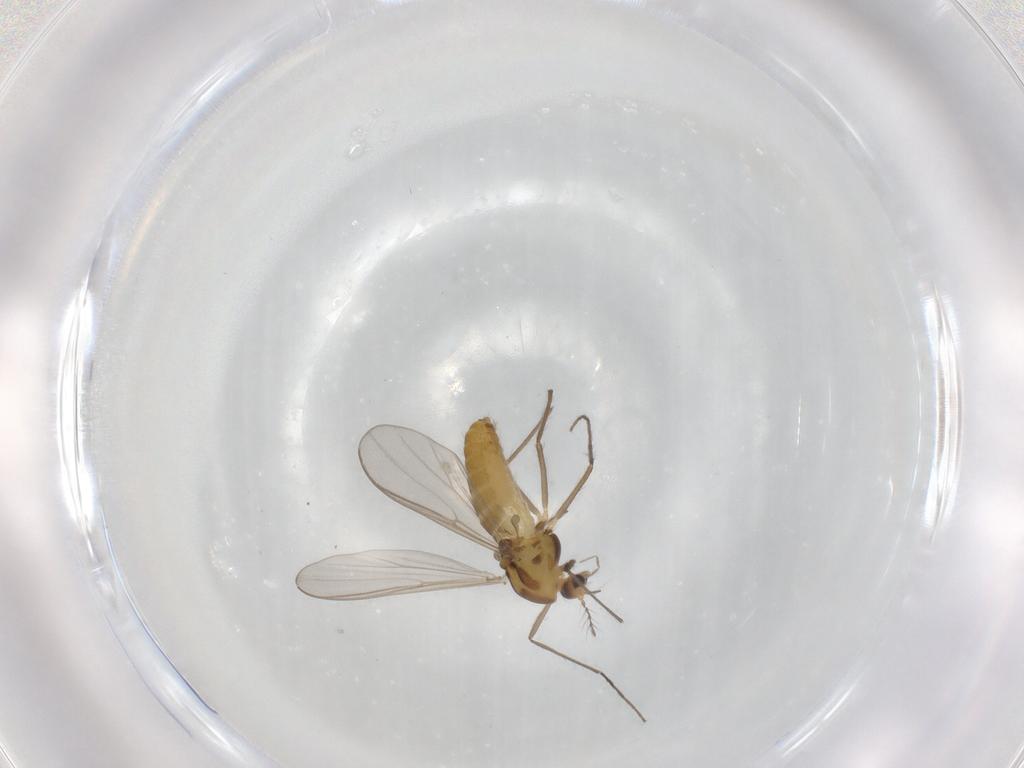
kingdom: Animalia
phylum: Arthropoda
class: Insecta
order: Diptera
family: Chironomidae
